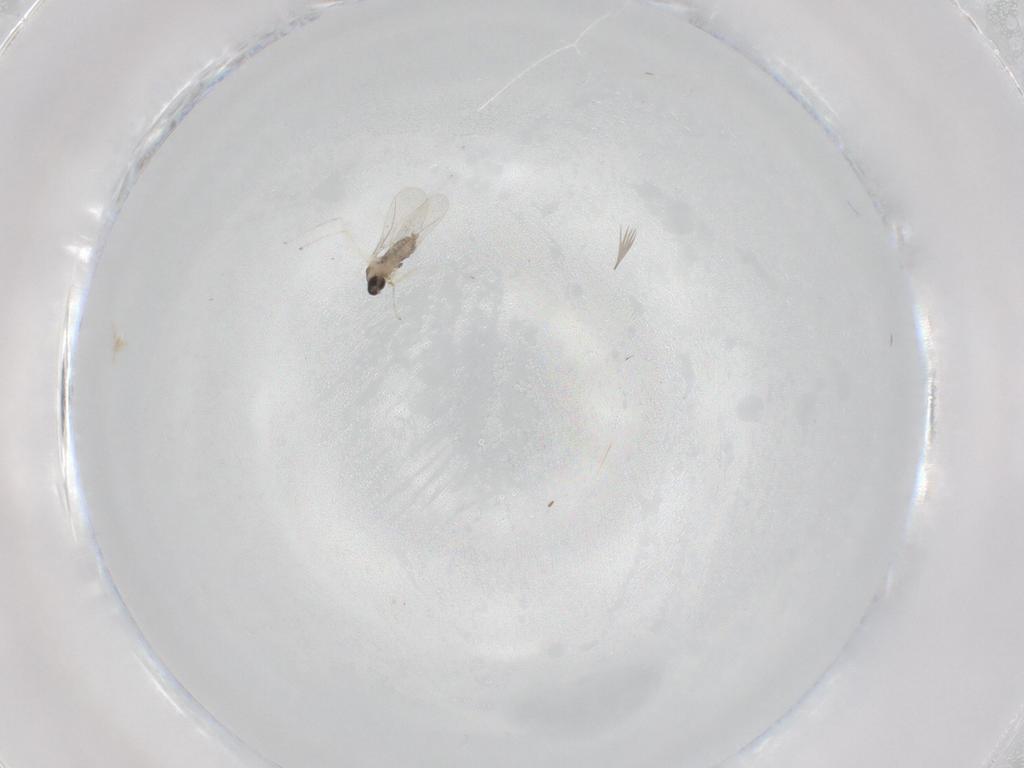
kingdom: Animalia
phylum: Arthropoda
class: Insecta
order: Diptera
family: Cecidomyiidae
